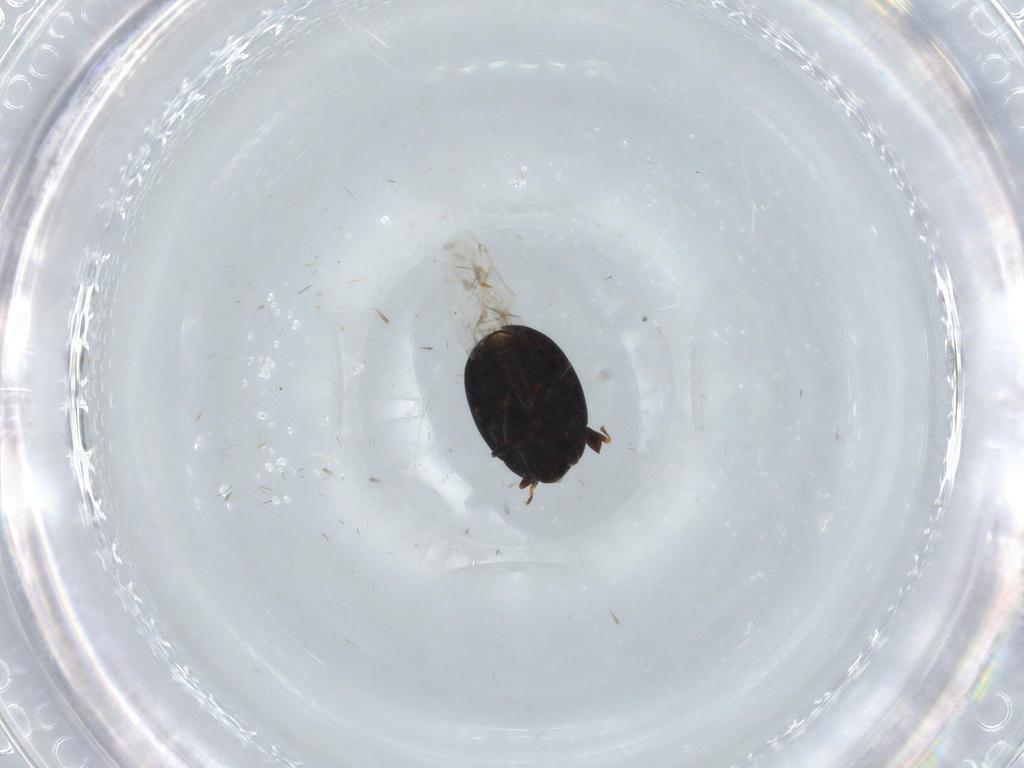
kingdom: Animalia
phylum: Arthropoda
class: Insecta
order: Coleoptera
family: Discolomatidae
